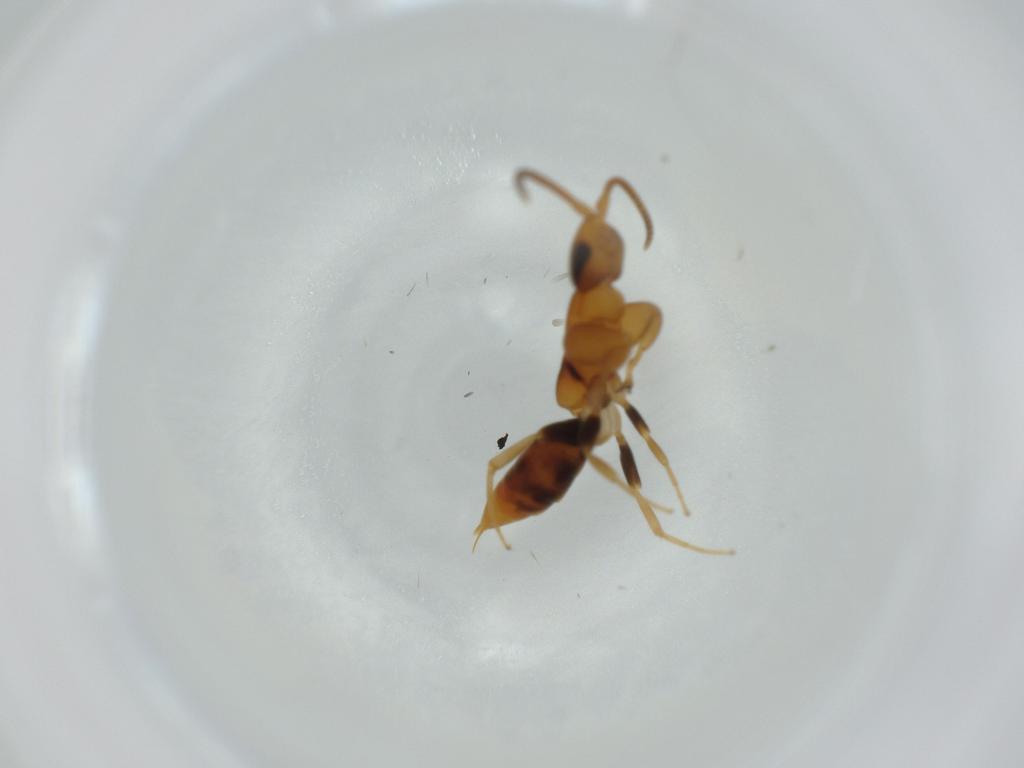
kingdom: Animalia
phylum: Arthropoda
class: Insecta
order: Hymenoptera
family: Sclerogibbidae
